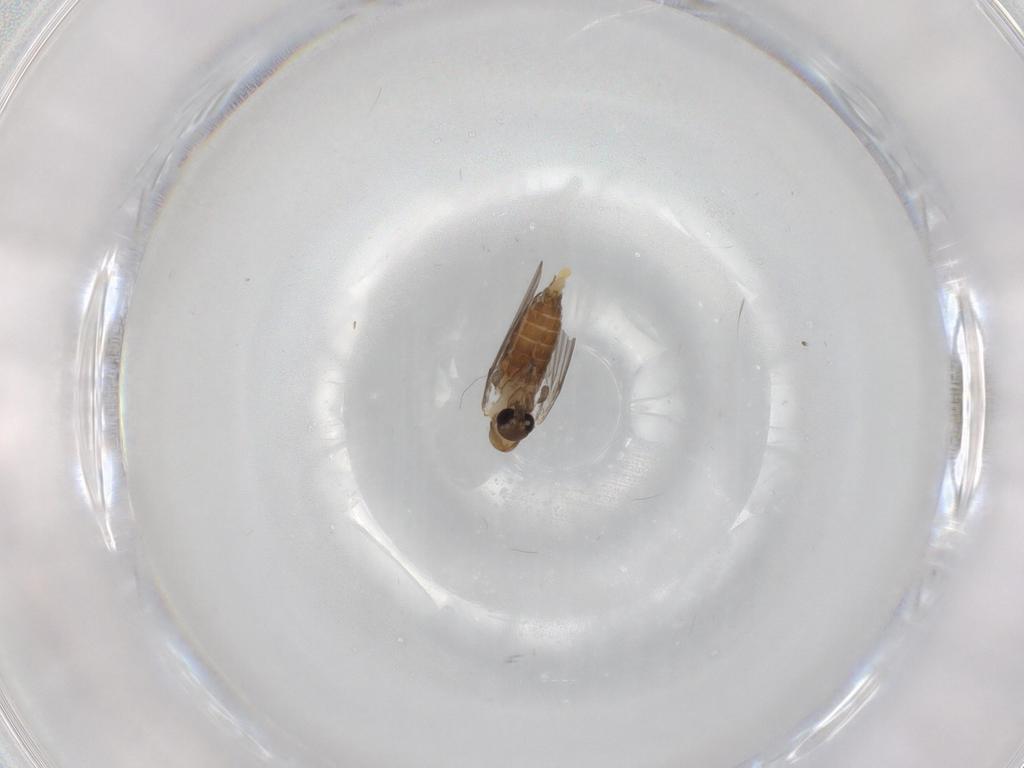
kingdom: Animalia
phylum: Arthropoda
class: Insecta
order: Diptera
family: Psychodidae
